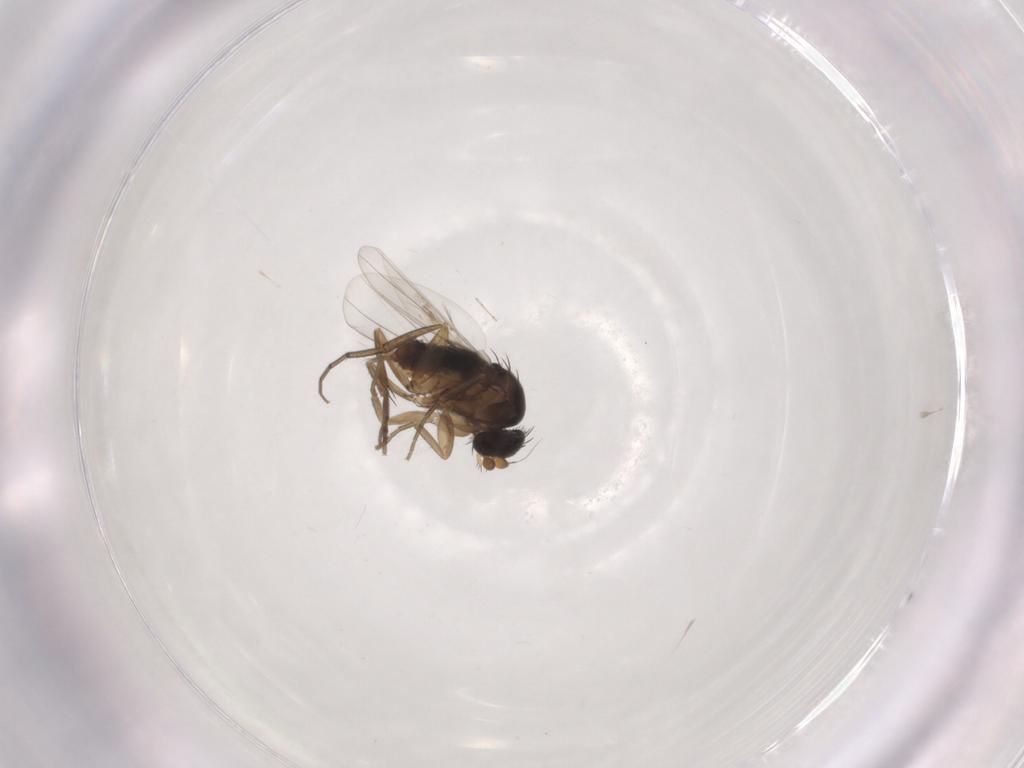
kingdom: Animalia
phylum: Arthropoda
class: Insecta
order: Diptera
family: Phoridae
